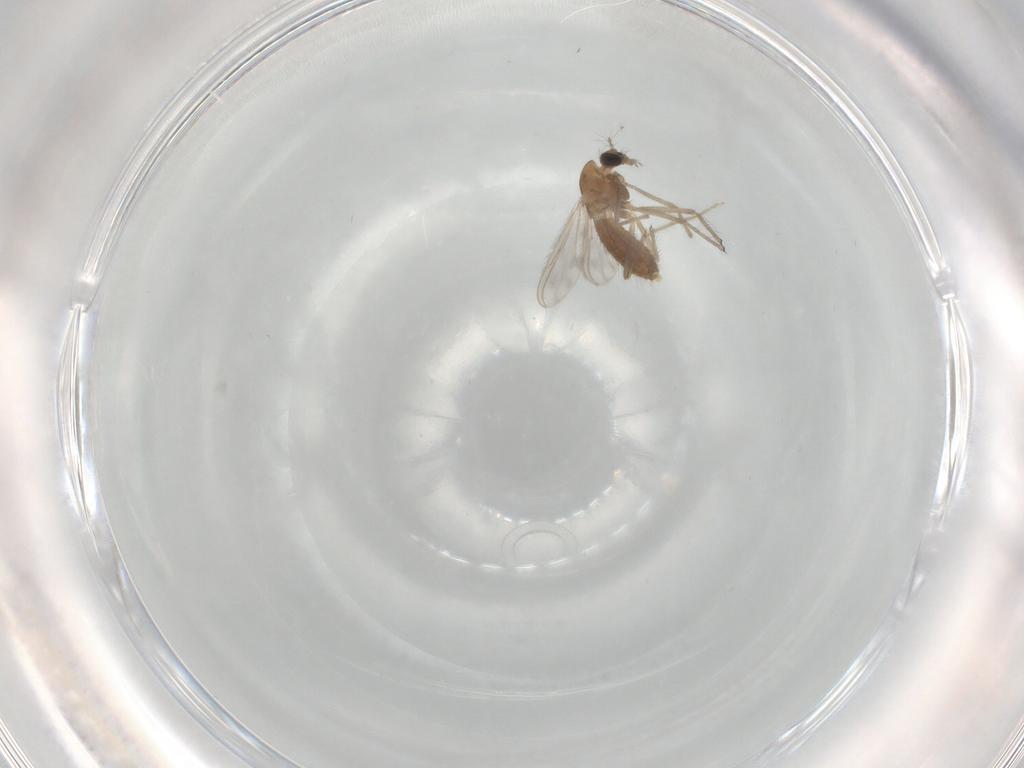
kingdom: Animalia
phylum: Arthropoda
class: Insecta
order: Diptera
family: Chironomidae
